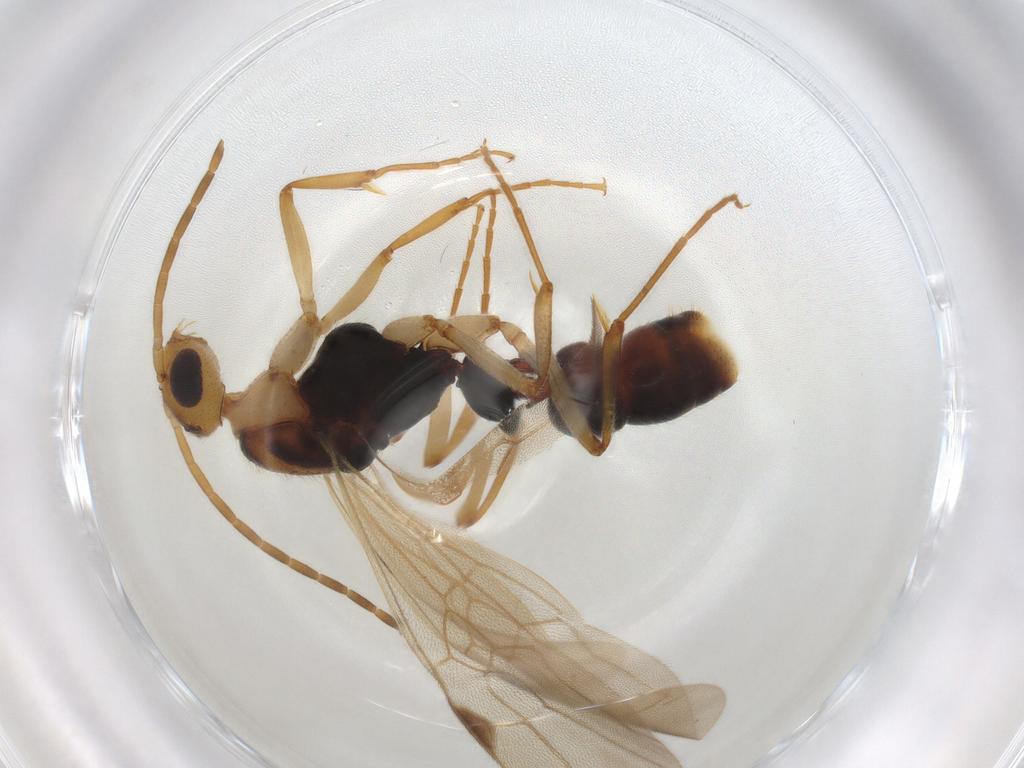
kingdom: Animalia
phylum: Arthropoda
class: Insecta
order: Hymenoptera
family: Formicidae
